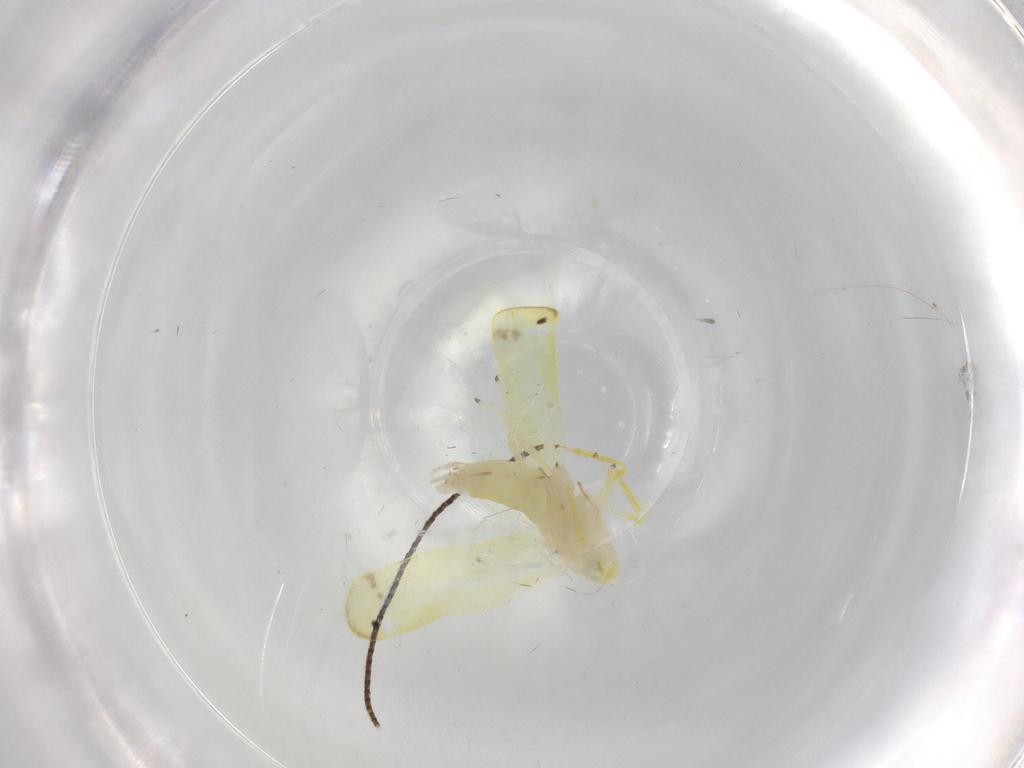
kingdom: Animalia
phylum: Arthropoda
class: Insecta
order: Hemiptera
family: Cicadellidae
